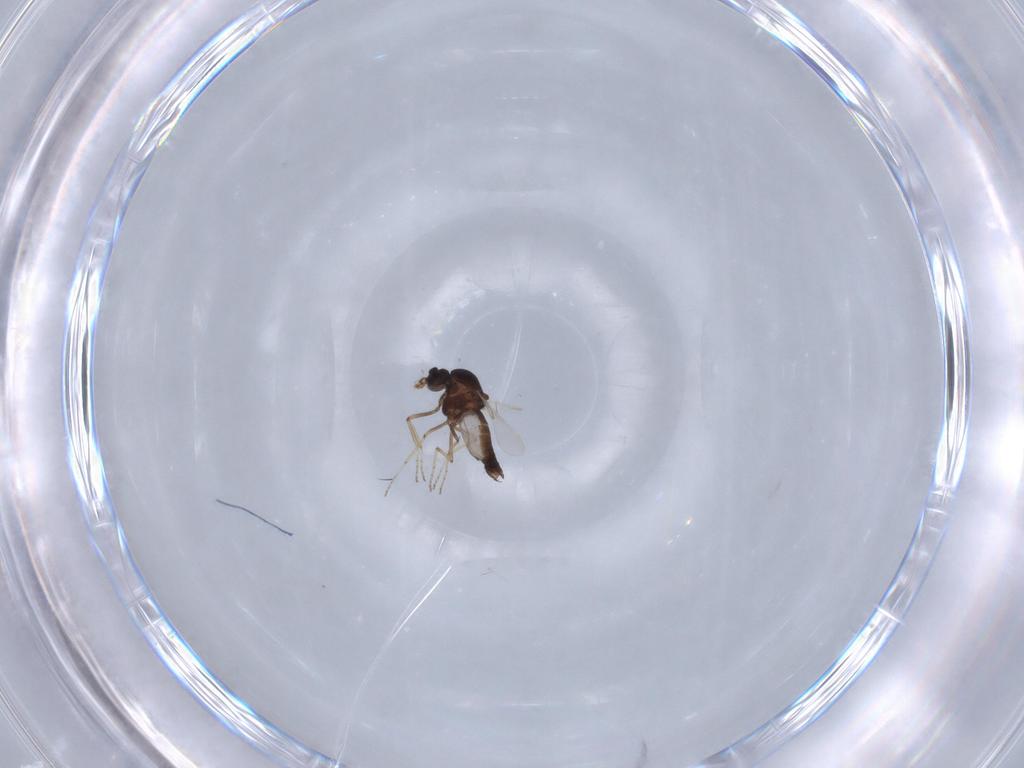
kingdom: Animalia
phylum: Arthropoda
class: Insecta
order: Diptera
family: Chloropidae
